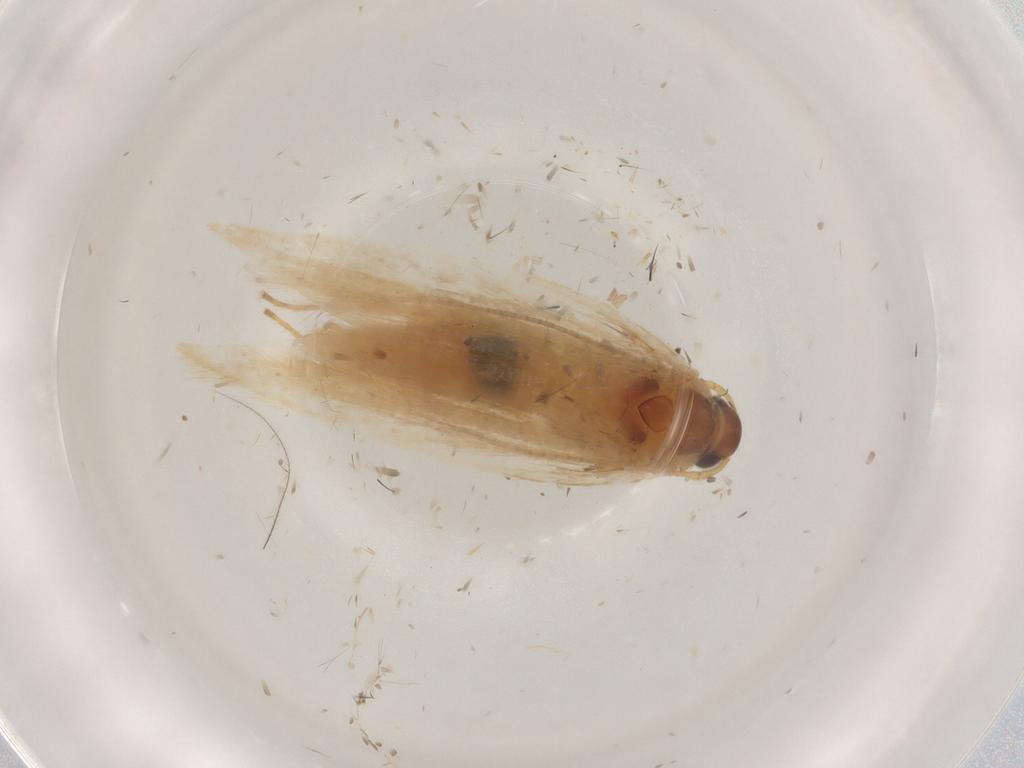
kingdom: Animalia
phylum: Arthropoda
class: Insecta
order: Lepidoptera
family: Gelechiidae
